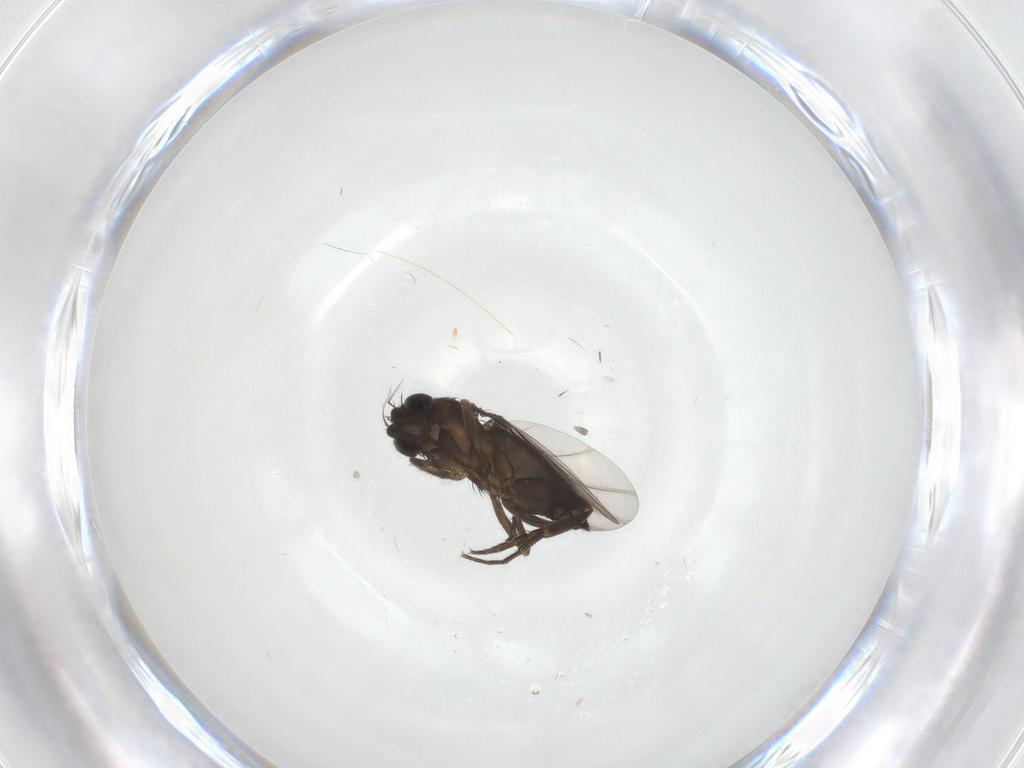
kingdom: Animalia
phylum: Arthropoda
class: Insecta
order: Diptera
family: Phoridae
